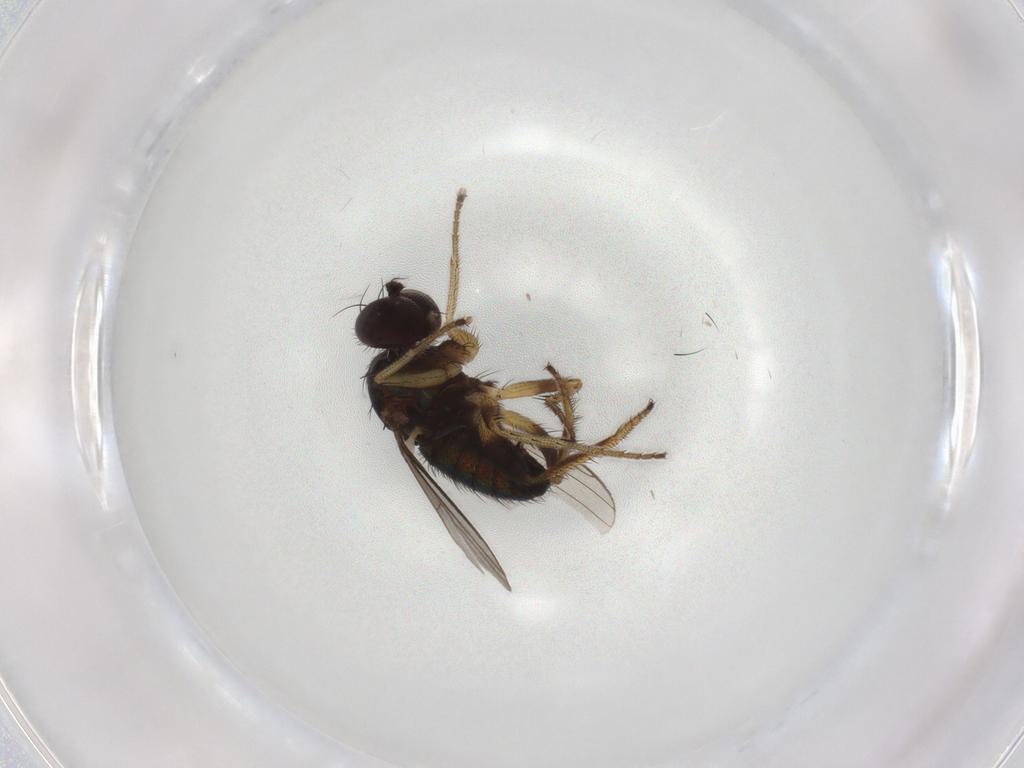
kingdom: Animalia
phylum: Arthropoda
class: Insecta
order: Diptera
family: Dolichopodidae
